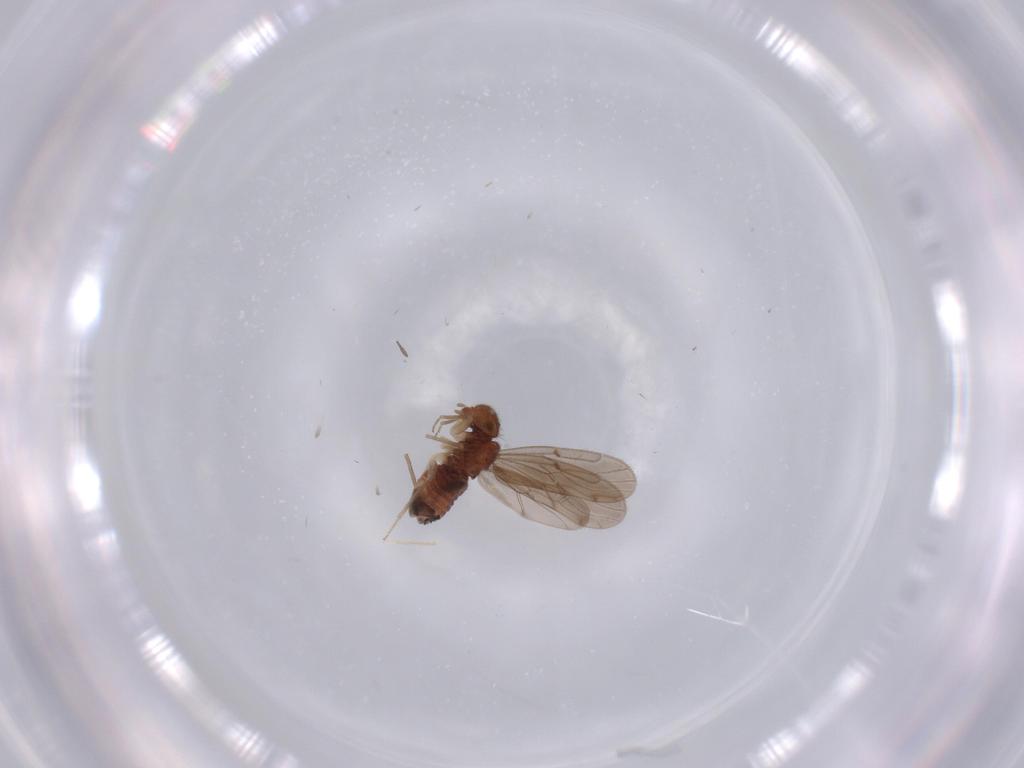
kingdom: Animalia
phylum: Arthropoda
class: Insecta
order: Psocodea
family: Ectopsocidae
